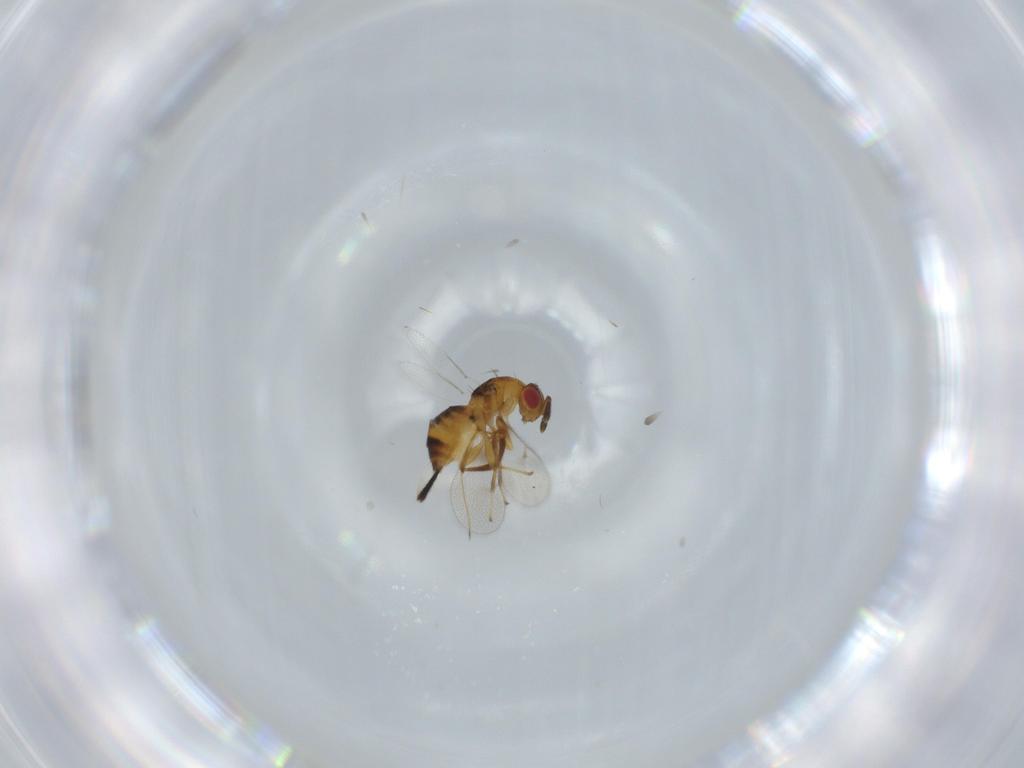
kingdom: Animalia
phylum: Arthropoda
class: Insecta
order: Hymenoptera
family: Torymidae
